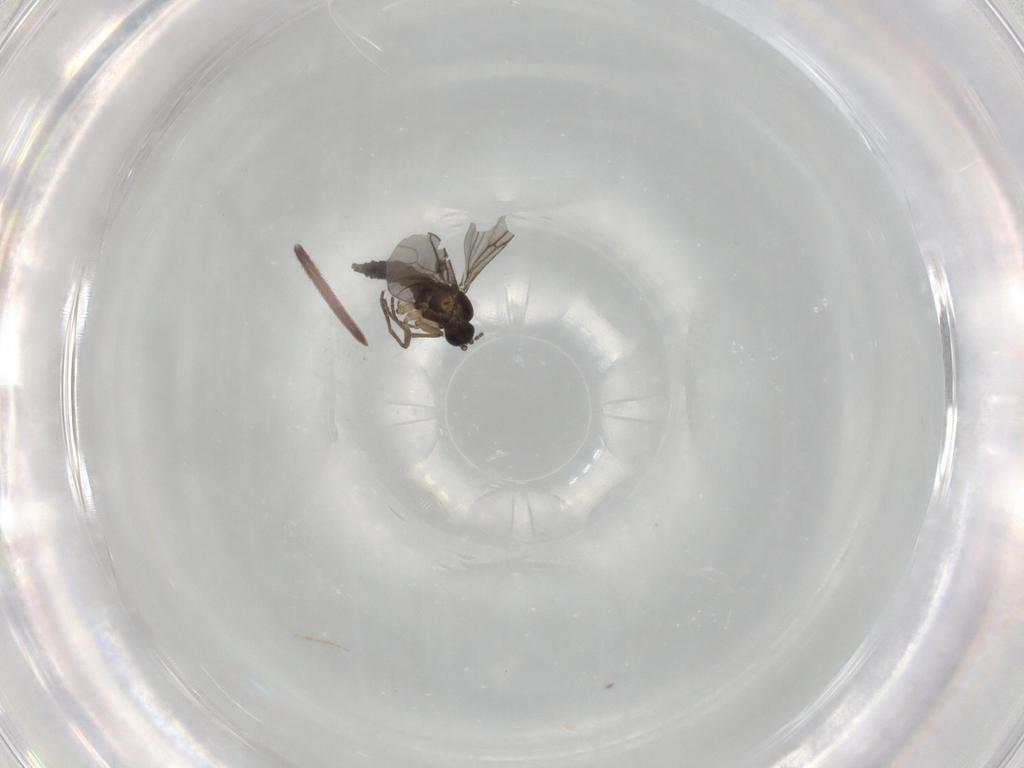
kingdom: Animalia
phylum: Arthropoda
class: Insecta
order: Diptera
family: Sciaridae
